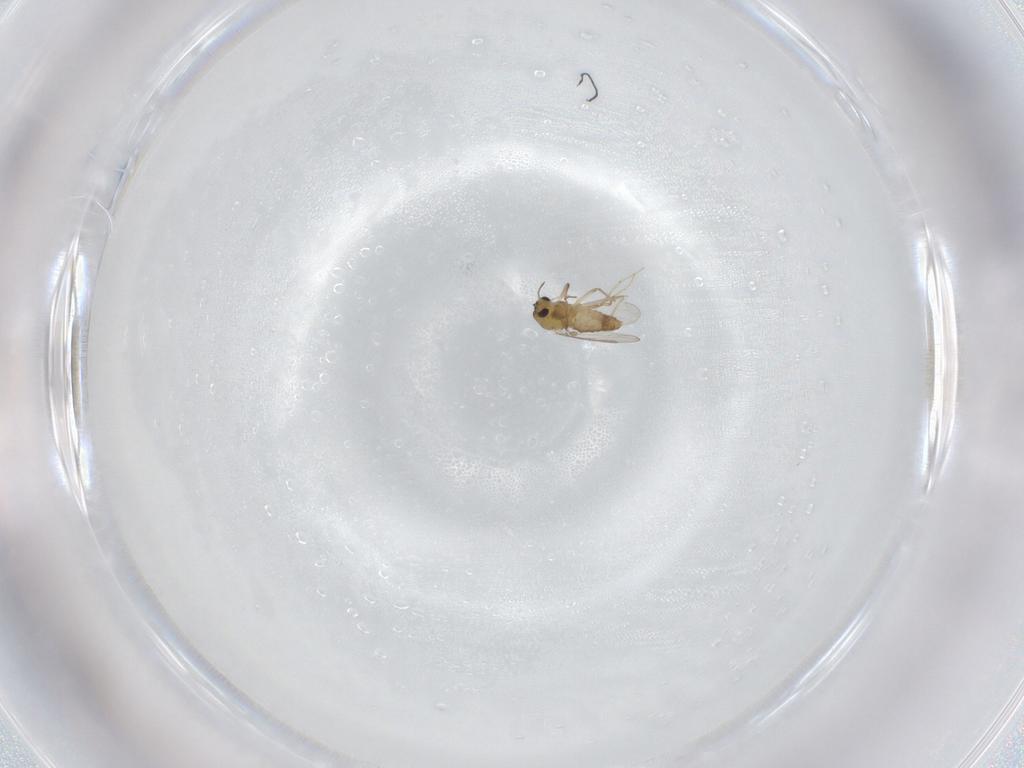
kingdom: Animalia
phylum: Arthropoda
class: Insecta
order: Diptera
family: Chironomidae
